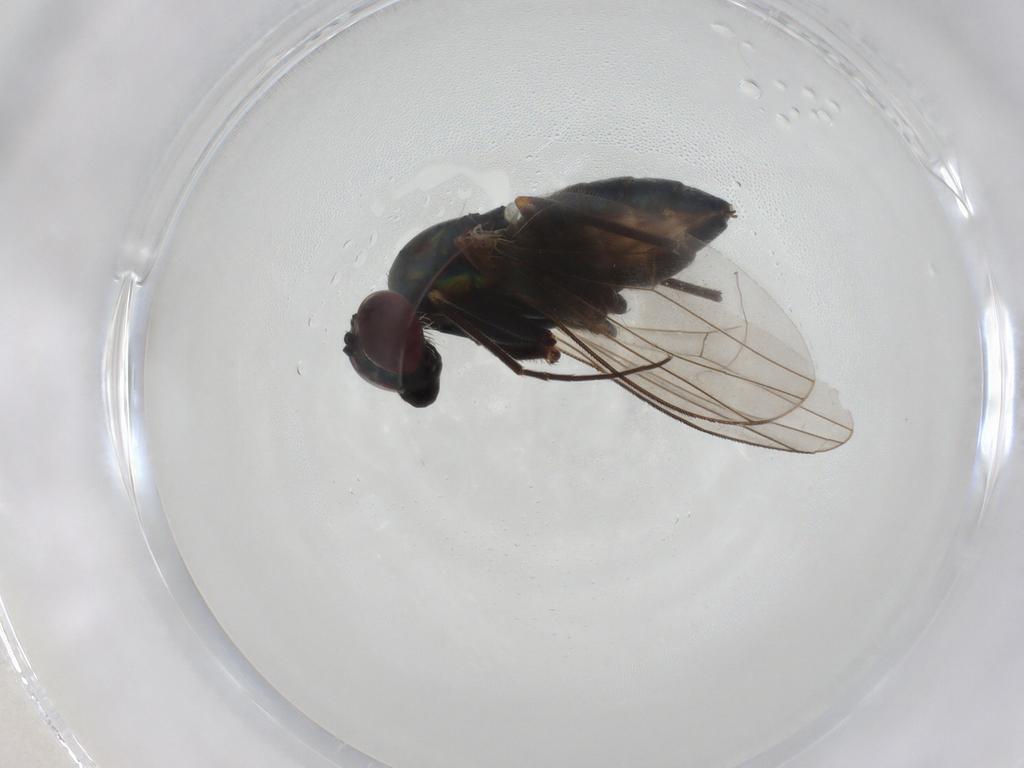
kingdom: Animalia
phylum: Arthropoda
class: Insecta
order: Diptera
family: Dolichopodidae
